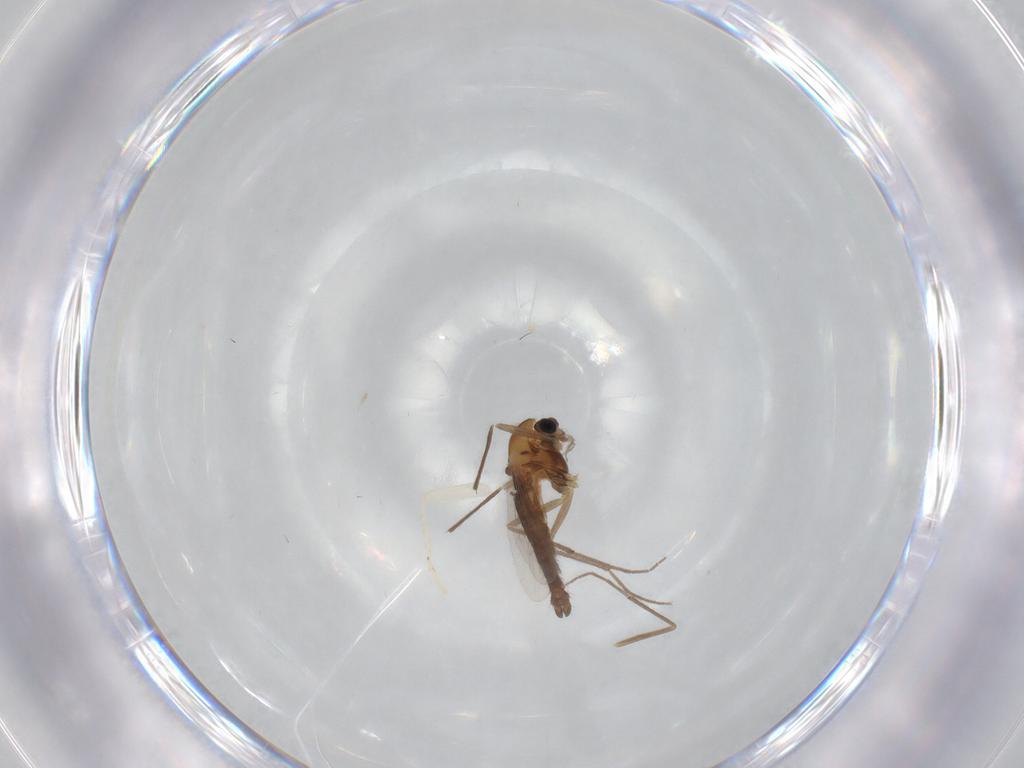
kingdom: Animalia
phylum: Arthropoda
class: Insecta
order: Diptera
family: Chironomidae
